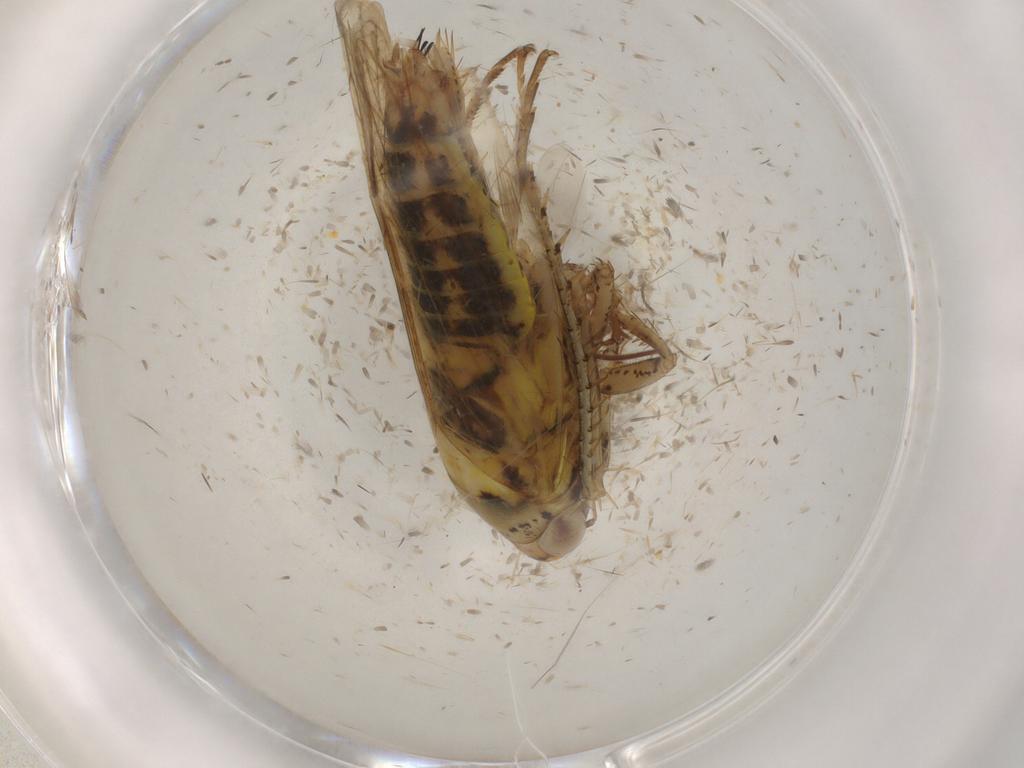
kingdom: Animalia
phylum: Arthropoda
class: Insecta
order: Hemiptera
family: Cicadellidae
